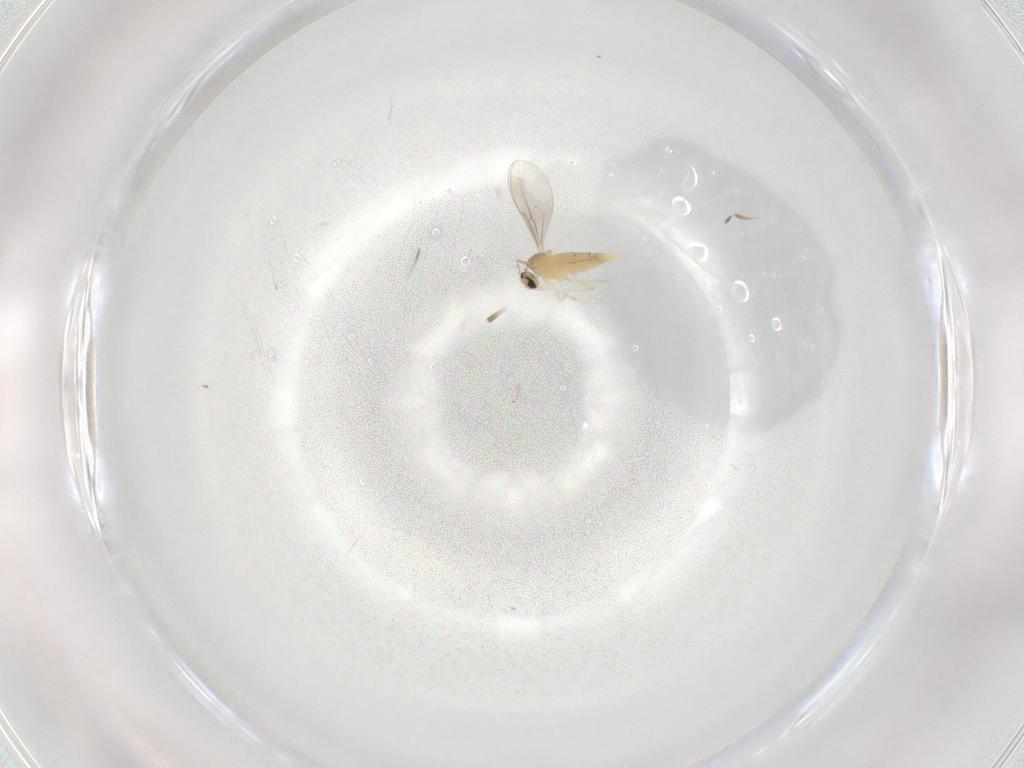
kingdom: Animalia
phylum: Arthropoda
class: Insecta
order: Diptera
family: Cecidomyiidae
